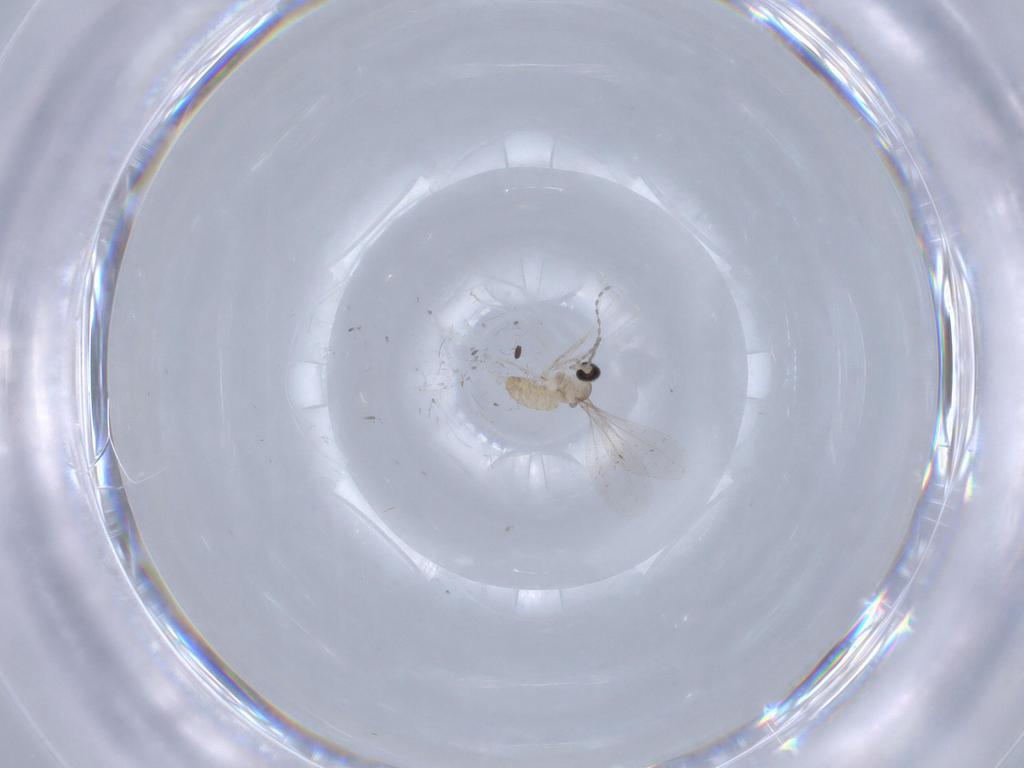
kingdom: Animalia
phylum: Arthropoda
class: Insecta
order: Diptera
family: Cecidomyiidae
